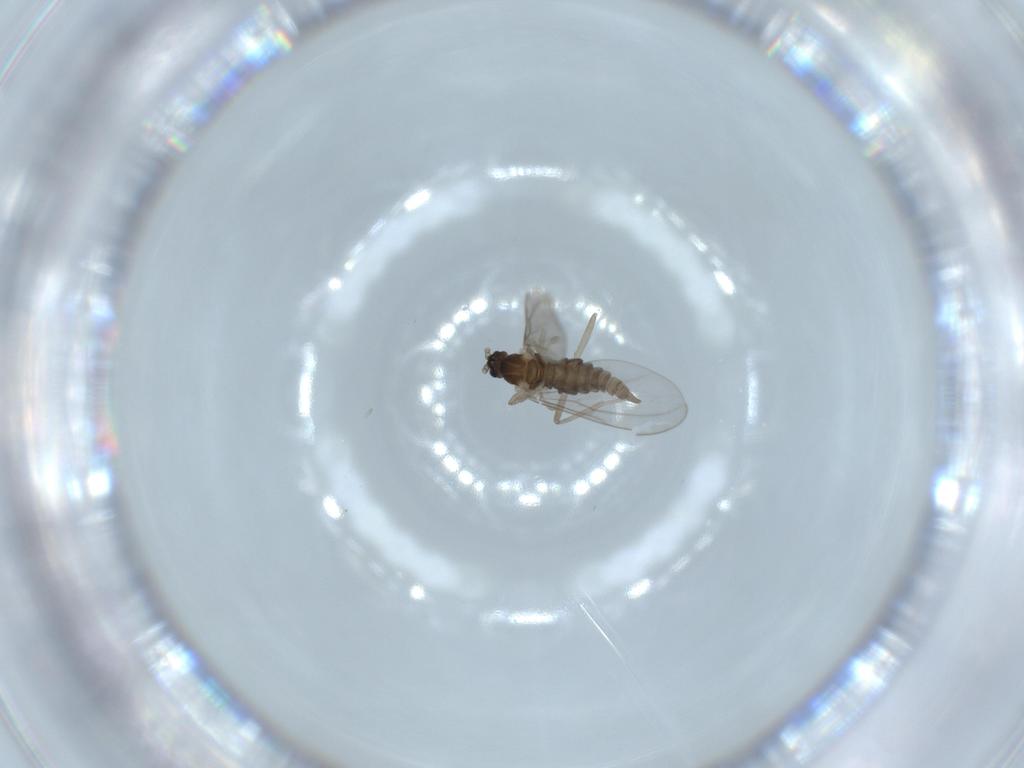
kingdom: Animalia
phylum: Arthropoda
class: Insecta
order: Diptera
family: Cecidomyiidae
